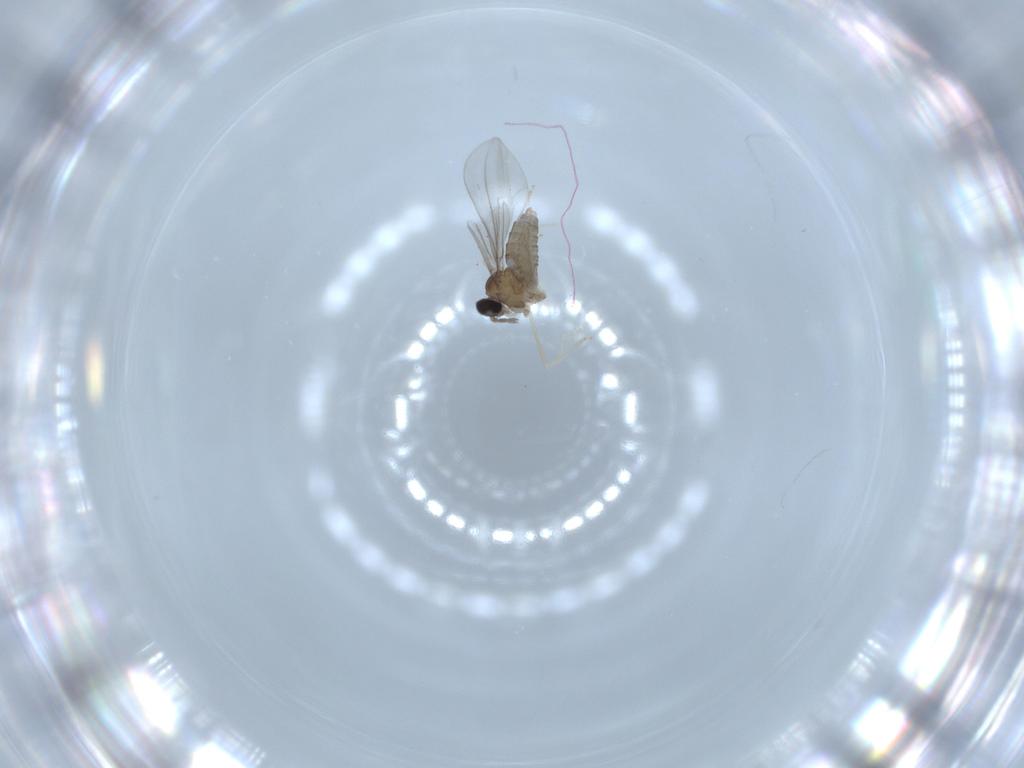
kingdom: Animalia
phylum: Arthropoda
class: Insecta
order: Diptera
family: Cecidomyiidae
